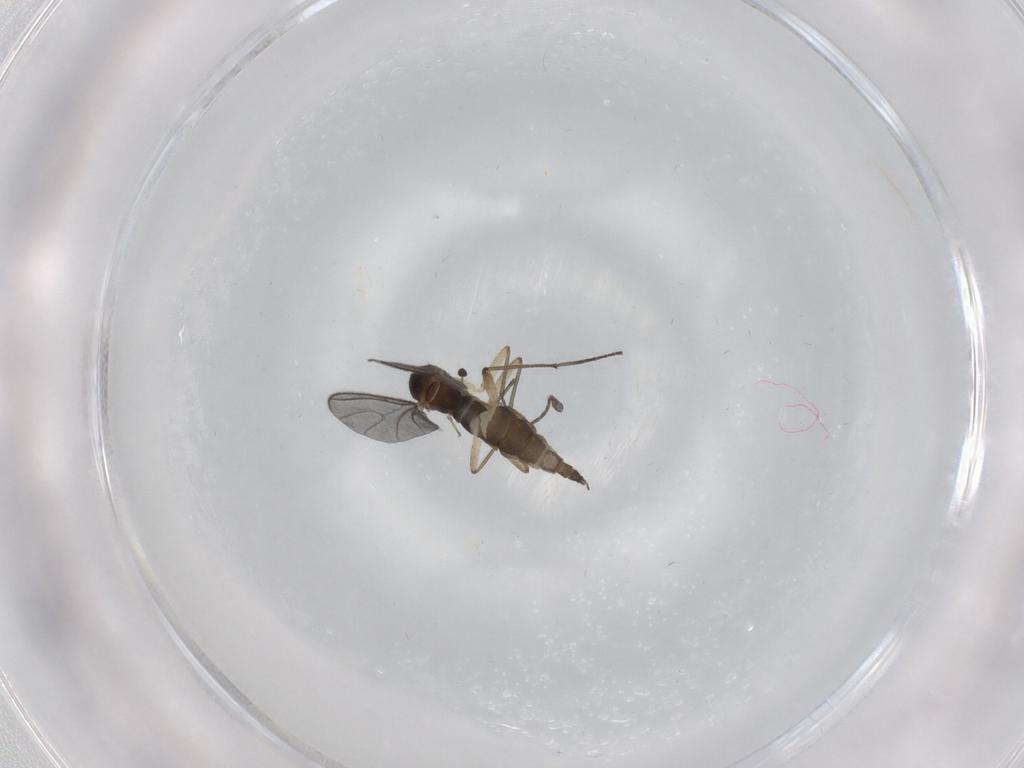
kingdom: Animalia
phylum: Arthropoda
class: Insecta
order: Diptera
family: Sciaridae
